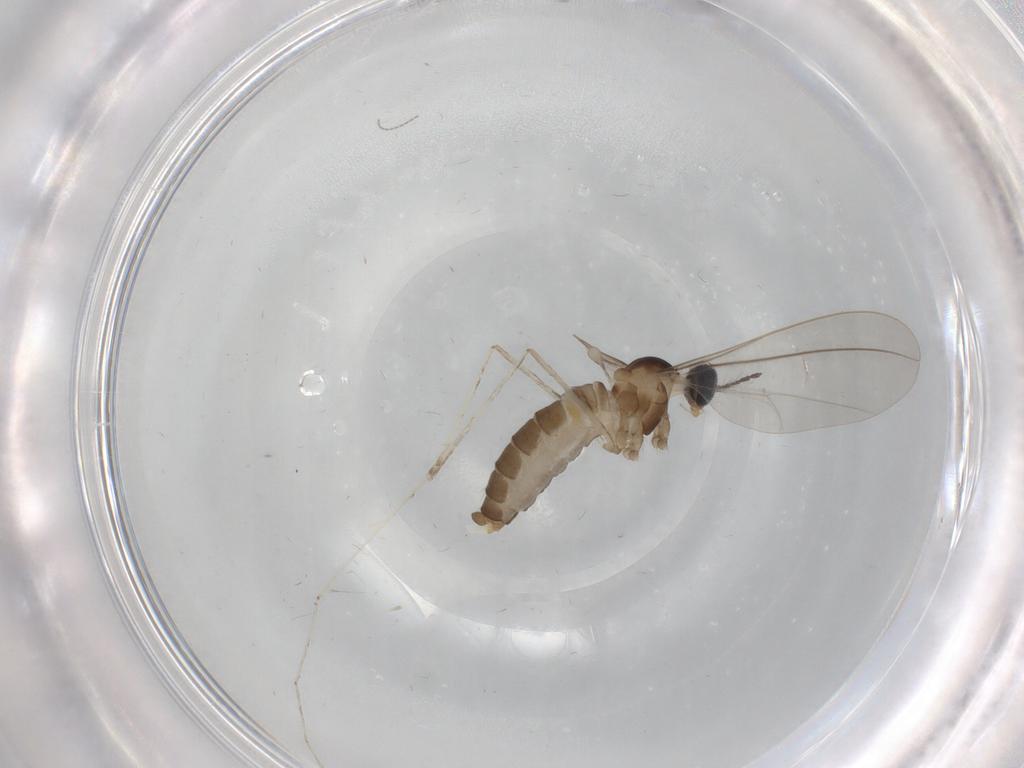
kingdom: Animalia
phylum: Arthropoda
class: Insecta
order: Diptera
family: Cecidomyiidae
